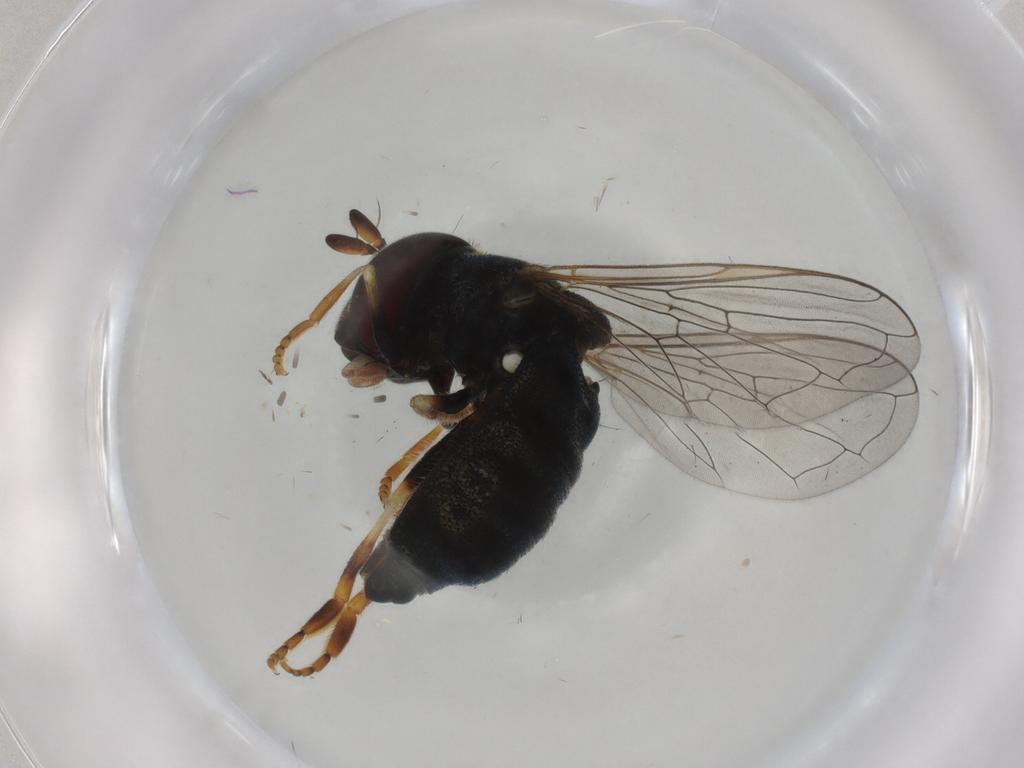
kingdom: Animalia
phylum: Arthropoda
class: Insecta
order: Diptera
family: Syrphidae
